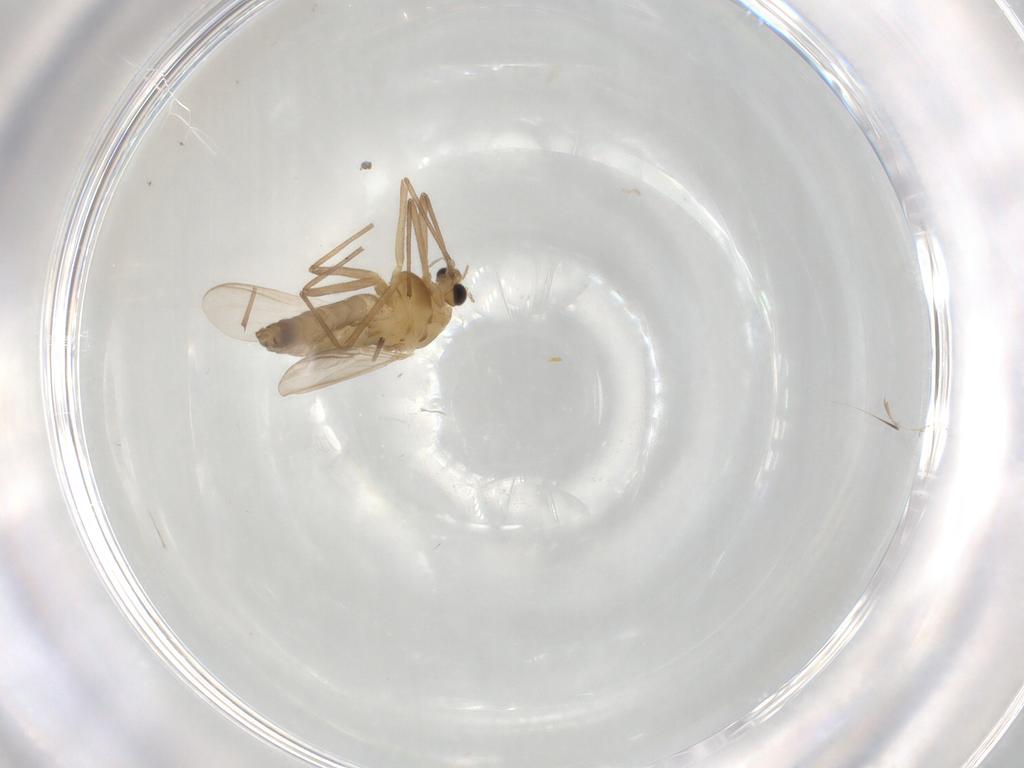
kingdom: Animalia
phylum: Arthropoda
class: Insecta
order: Diptera
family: Chironomidae
